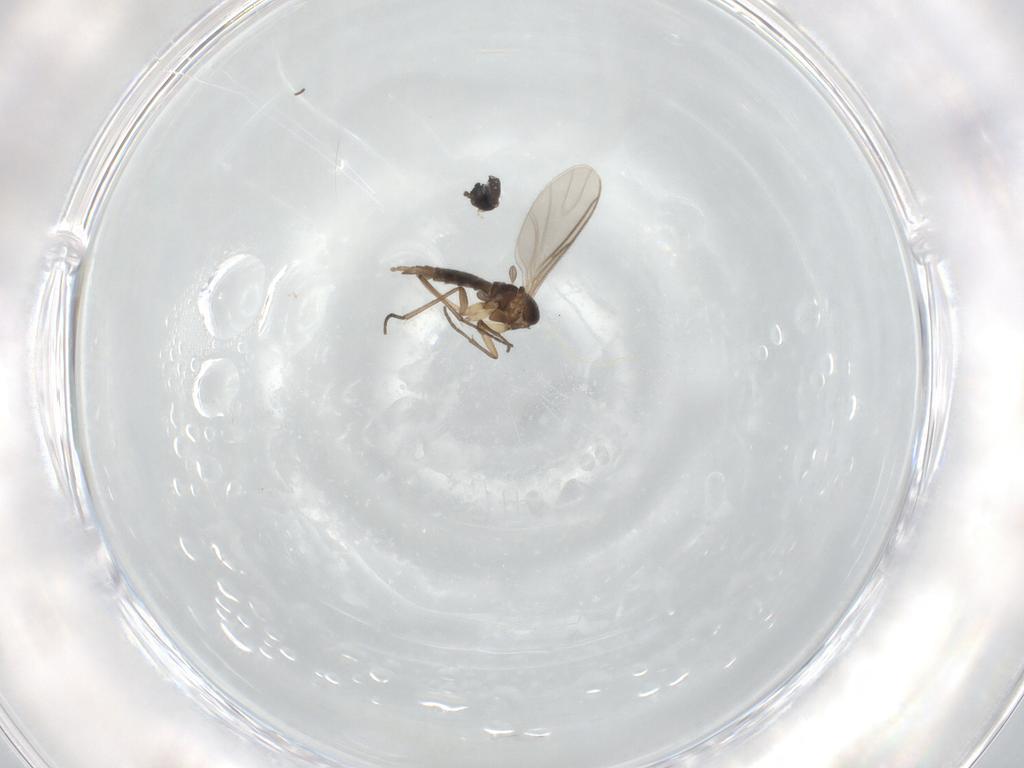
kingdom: Animalia
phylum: Arthropoda
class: Insecta
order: Diptera
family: Sciaridae
